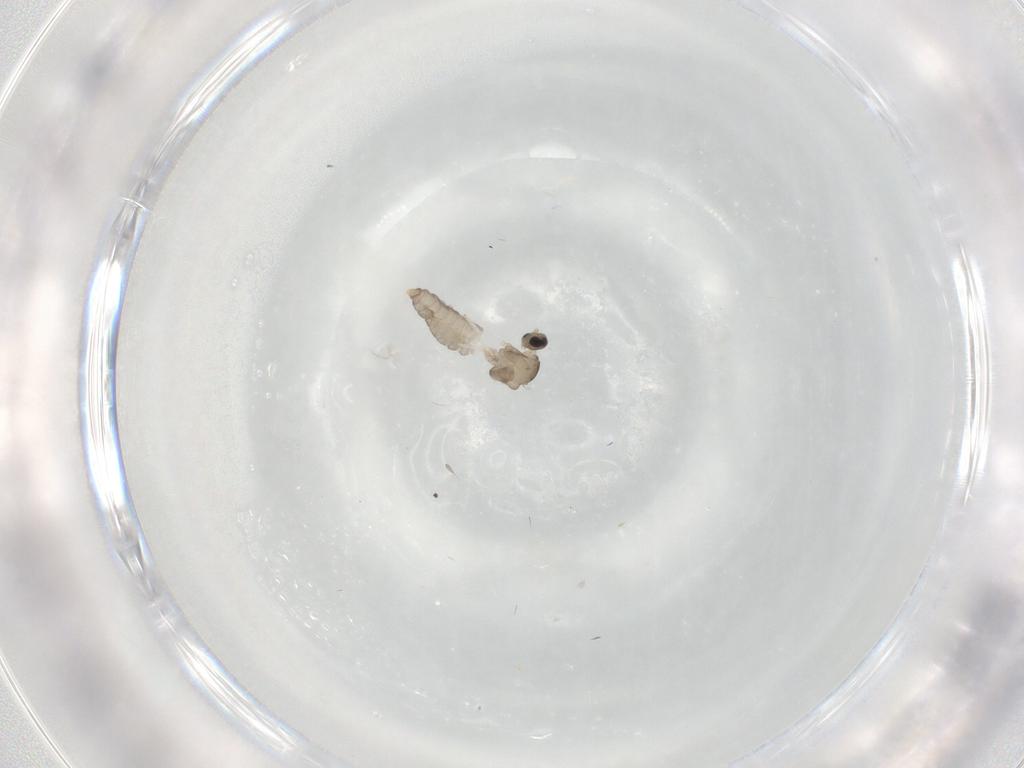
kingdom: Animalia
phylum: Arthropoda
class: Insecta
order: Diptera
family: Cecidomyiidae
